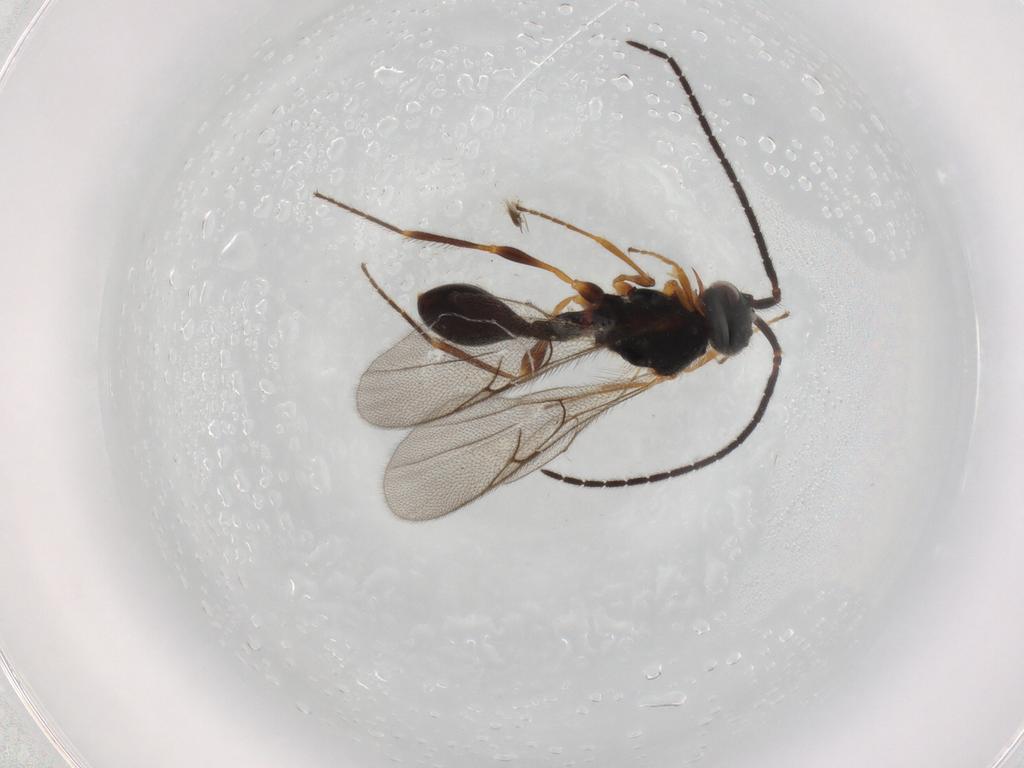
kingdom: Animalia
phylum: Arthropoda
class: Insecta
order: Hymenoptera
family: Diapriidae
